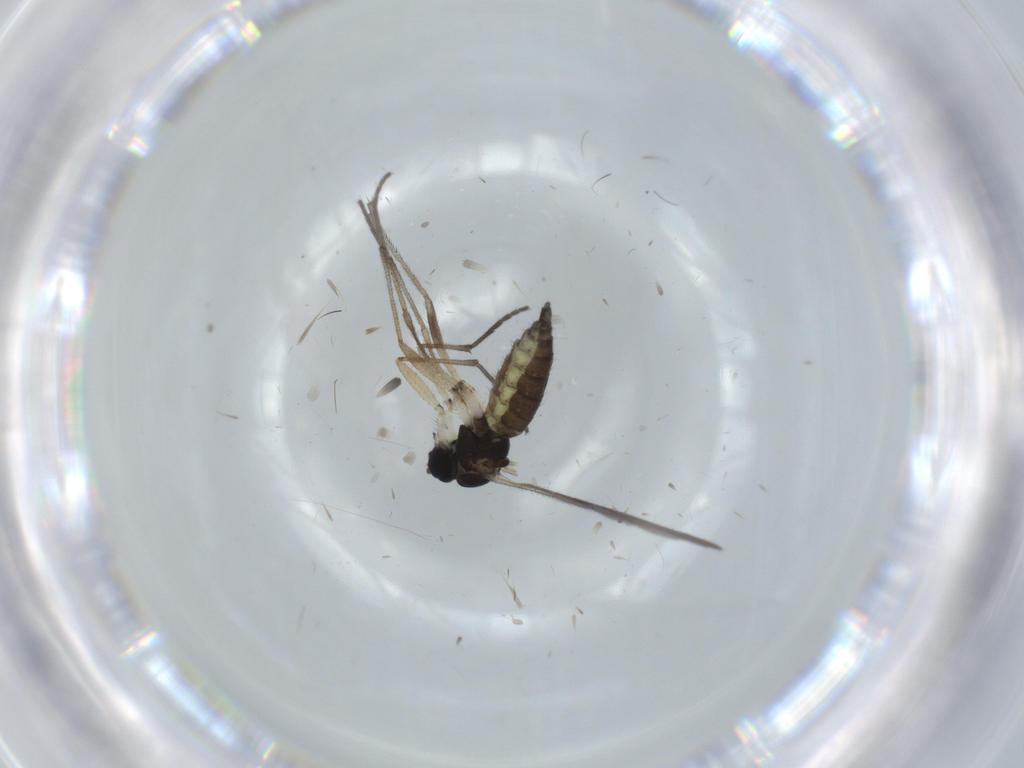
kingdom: Animalia
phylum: Arthropoda
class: Insecta
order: Diptera
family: Sciaridae
